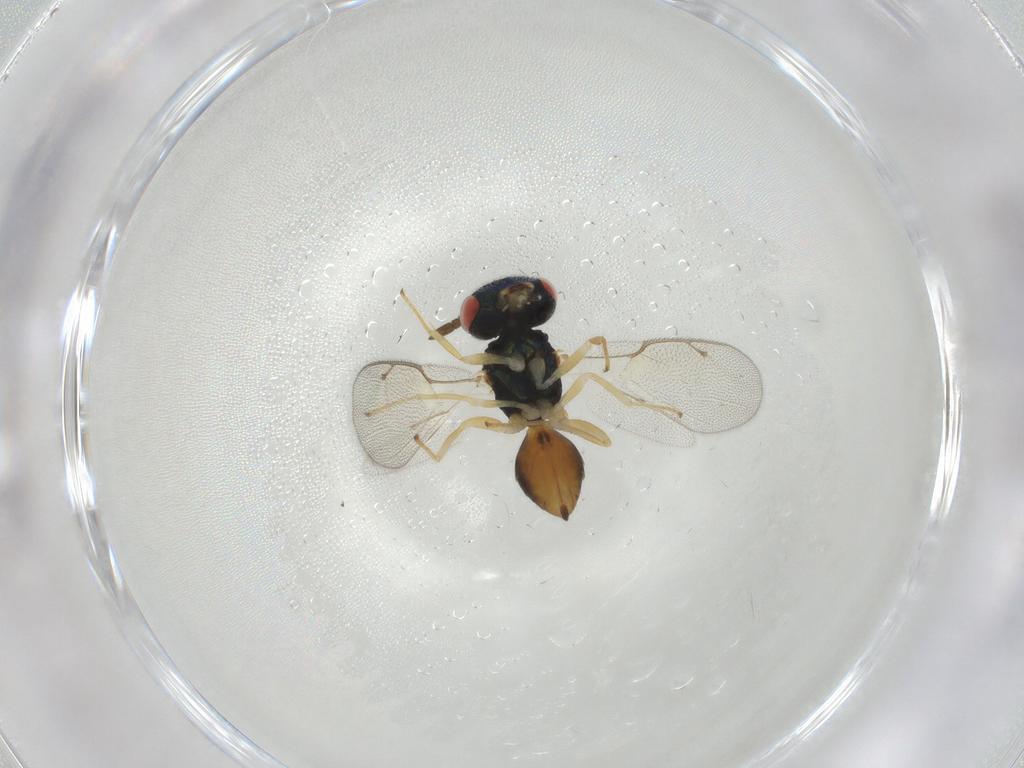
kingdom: Animalia
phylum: Arthropoda
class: Insecta
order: Hymenoptera
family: Pteromalidae
